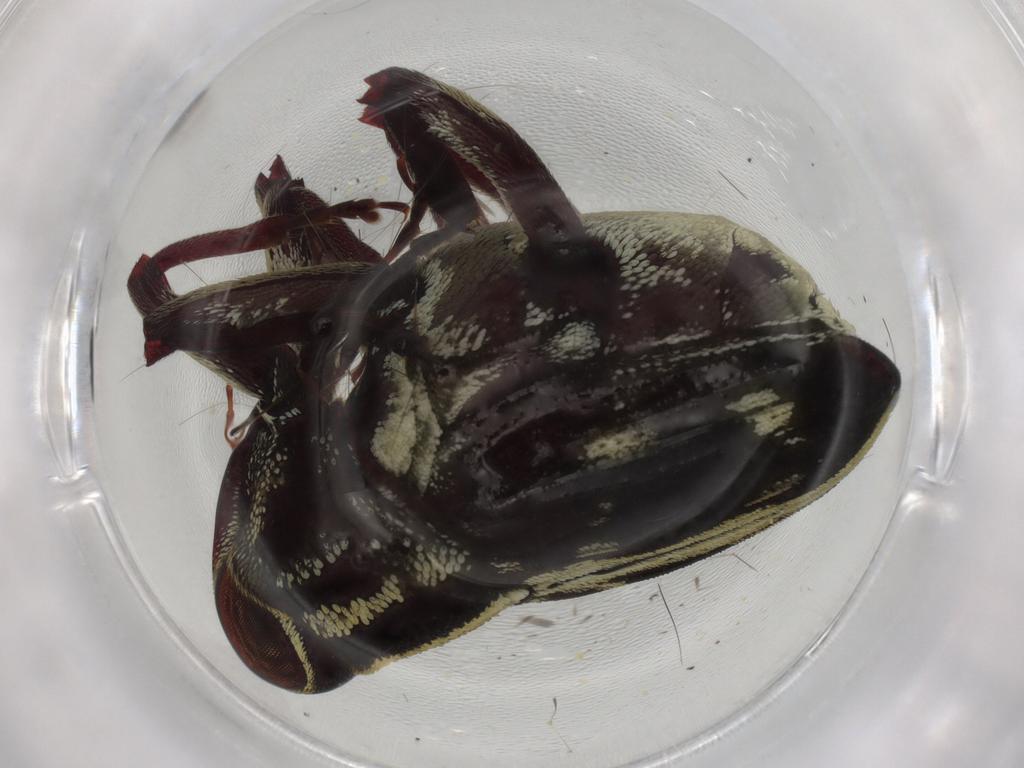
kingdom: Animalia
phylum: Arthropoda
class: Insecta
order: Coleoptera
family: Curculionidae
